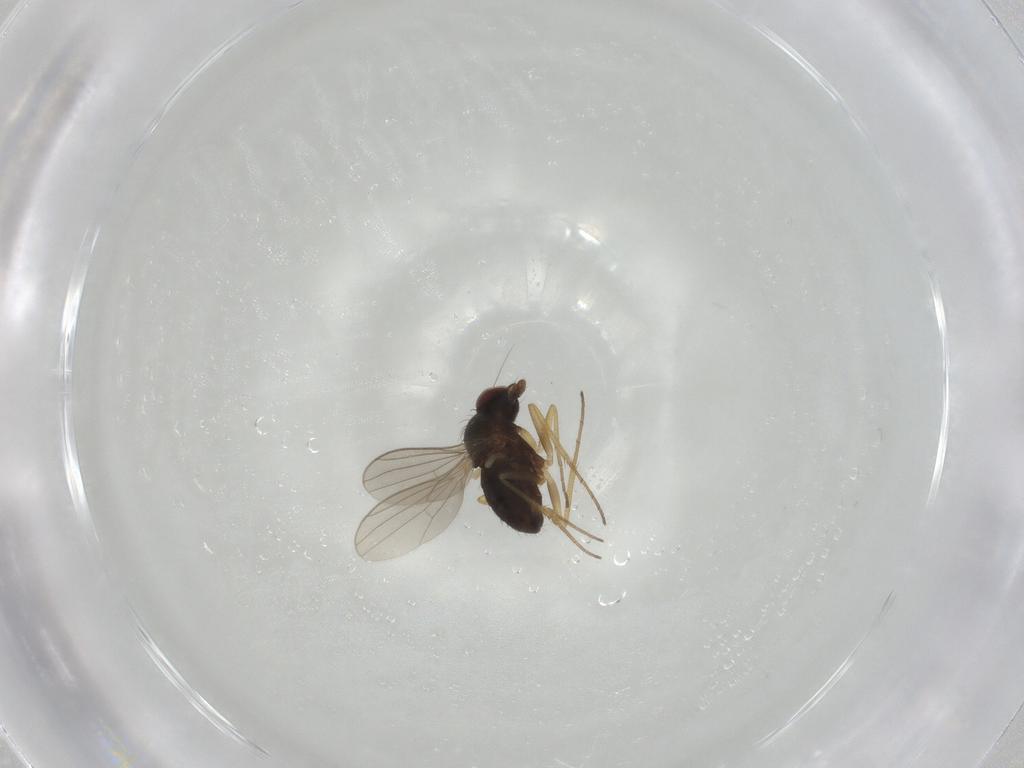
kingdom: Animalia
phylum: Arthropoda
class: Insecta
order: Diptera
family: Dolichopodidae
